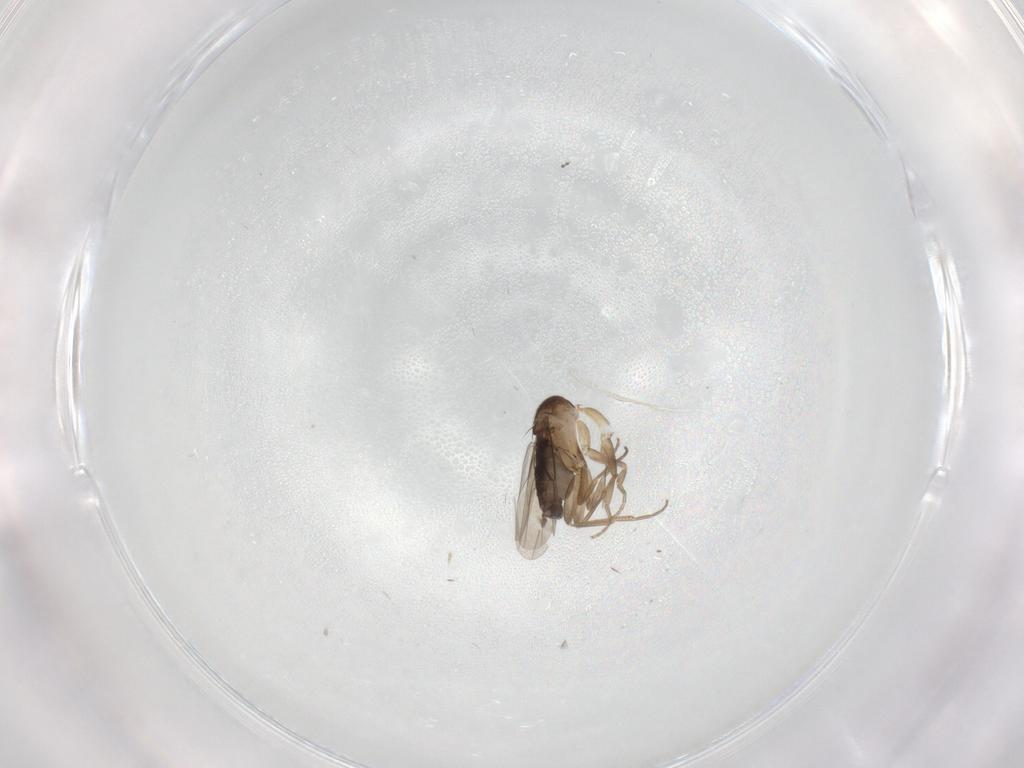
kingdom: Animalia
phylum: Arthropoda
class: Insecta
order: Diptera
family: Phoridae
